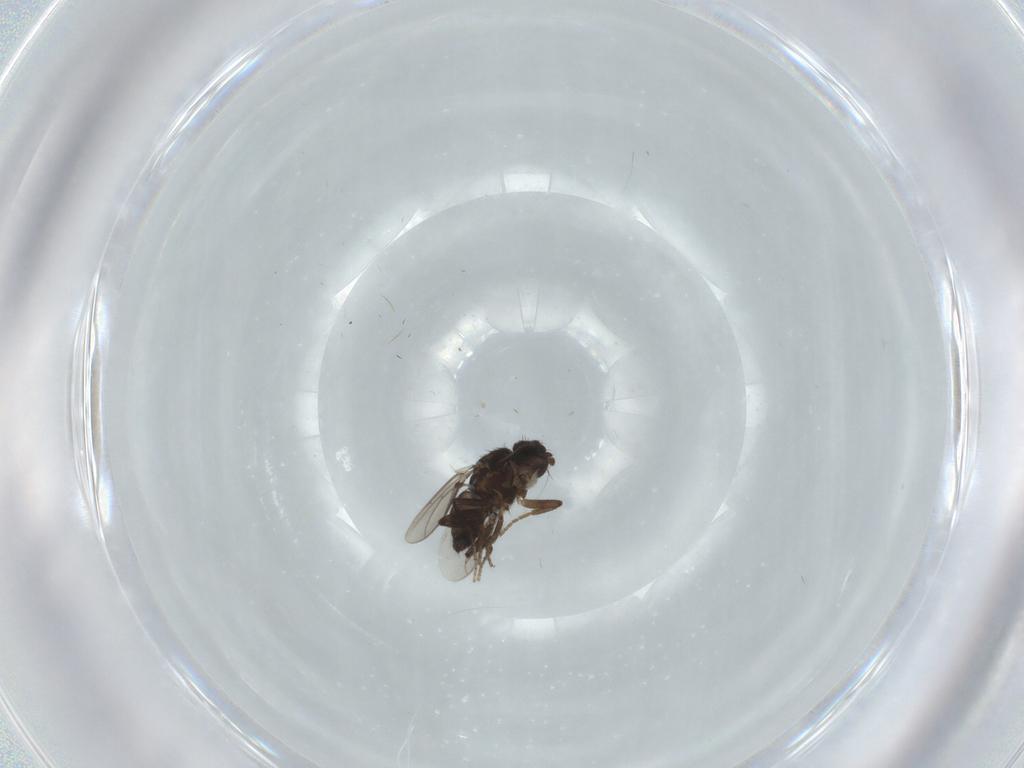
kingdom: Animalia
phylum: Arthropoda
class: Insecta
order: Diptera
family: Sphaeroceridae
